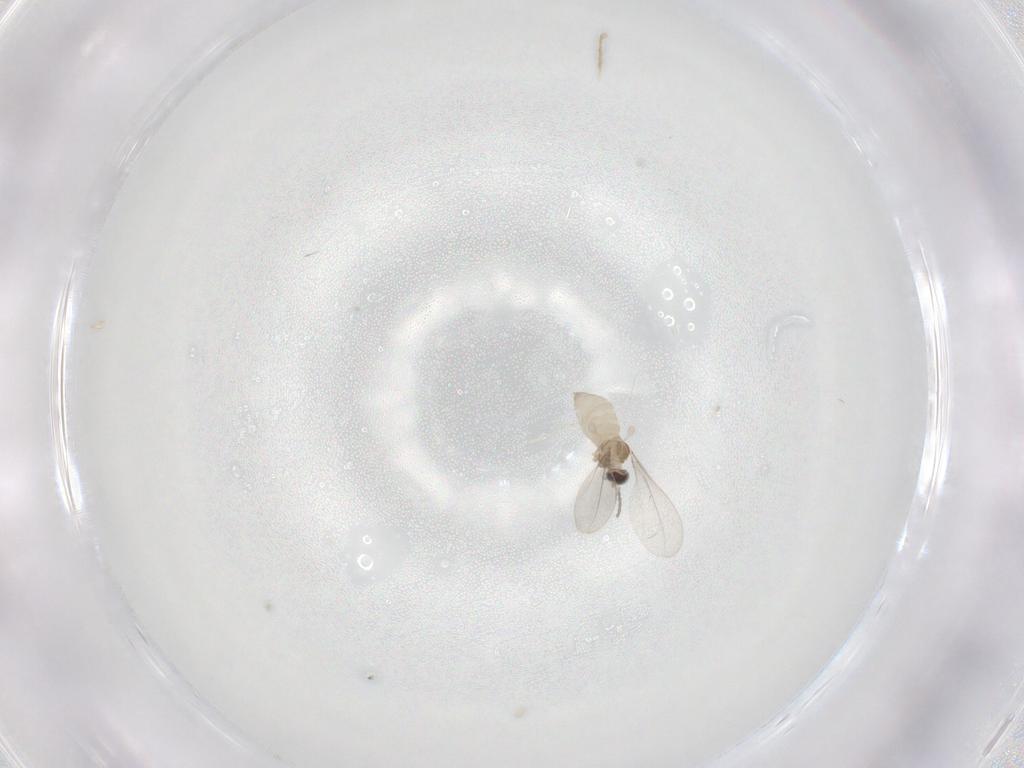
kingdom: Animalia
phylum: Arthropoda
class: Insecta
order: Diptera
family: Cecidomyiidae
